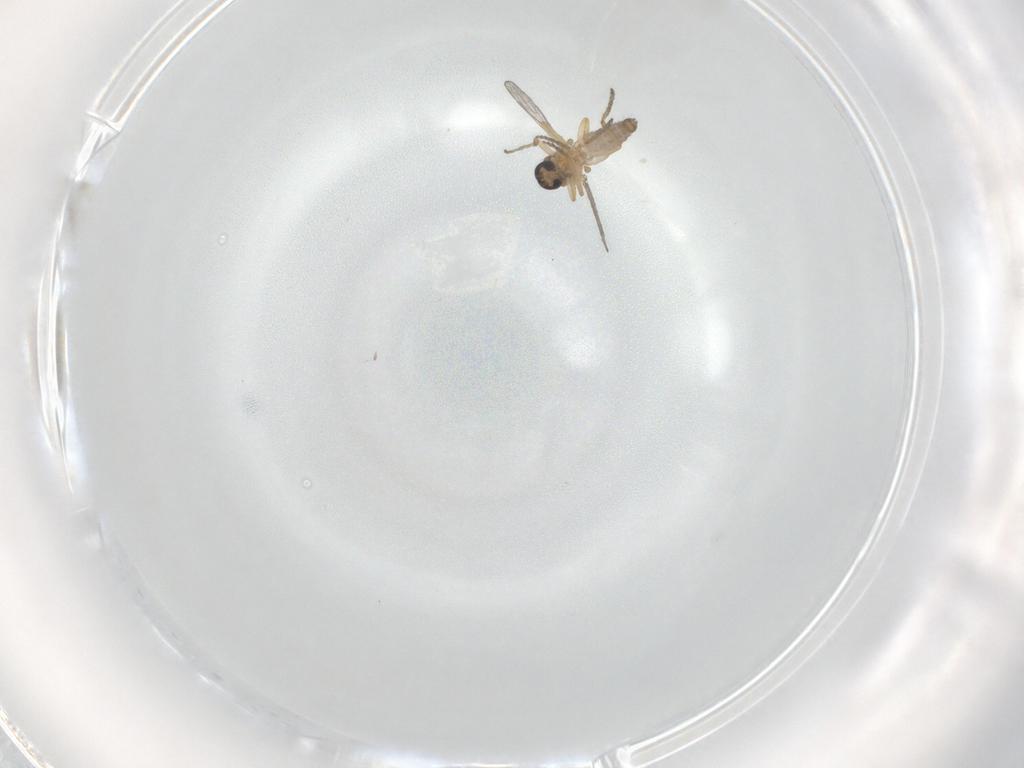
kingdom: Animalia
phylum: Arthropoda
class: Insecta
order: Diptera
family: Ceratopogonidae
